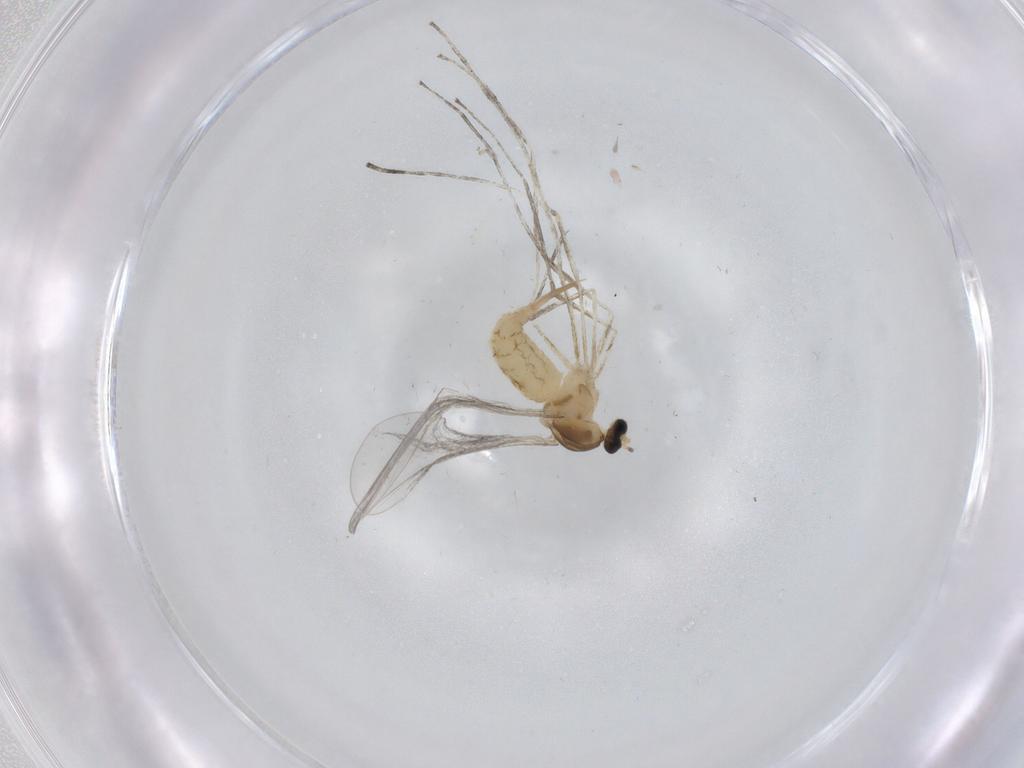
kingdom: Animalia
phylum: Arthropoda
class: Insecta
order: Diptera
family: Cecidomyiidae
